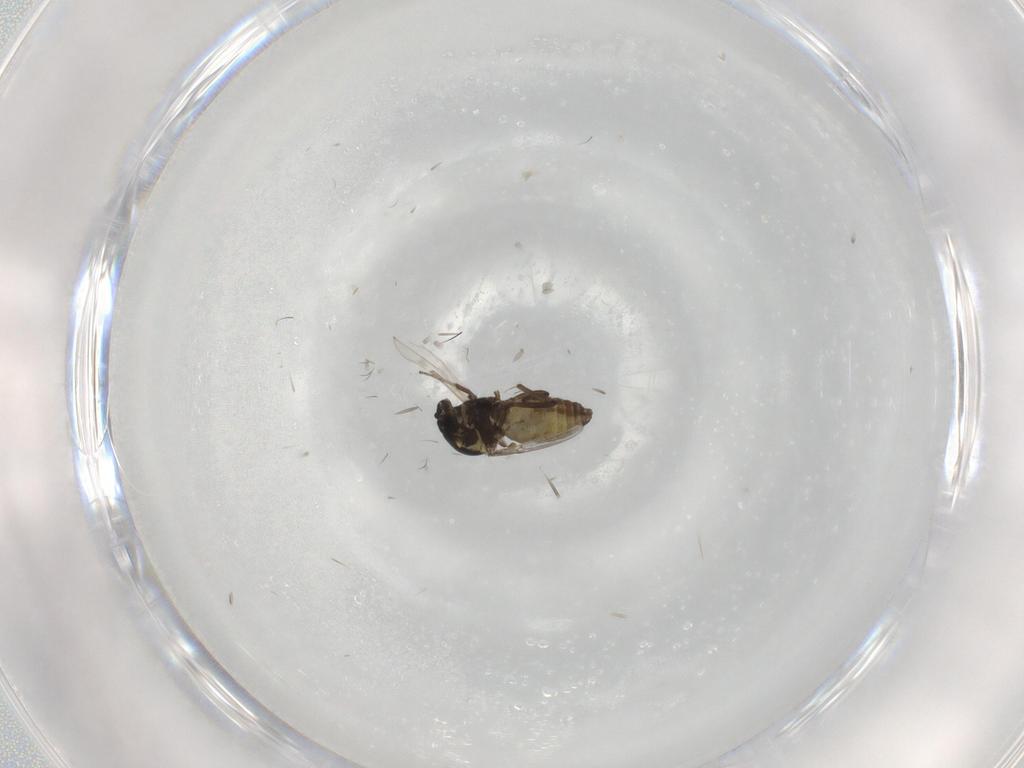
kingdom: Animalia
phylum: Arthropoda
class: Insecta
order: Diptera
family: Ceratopogonidae
